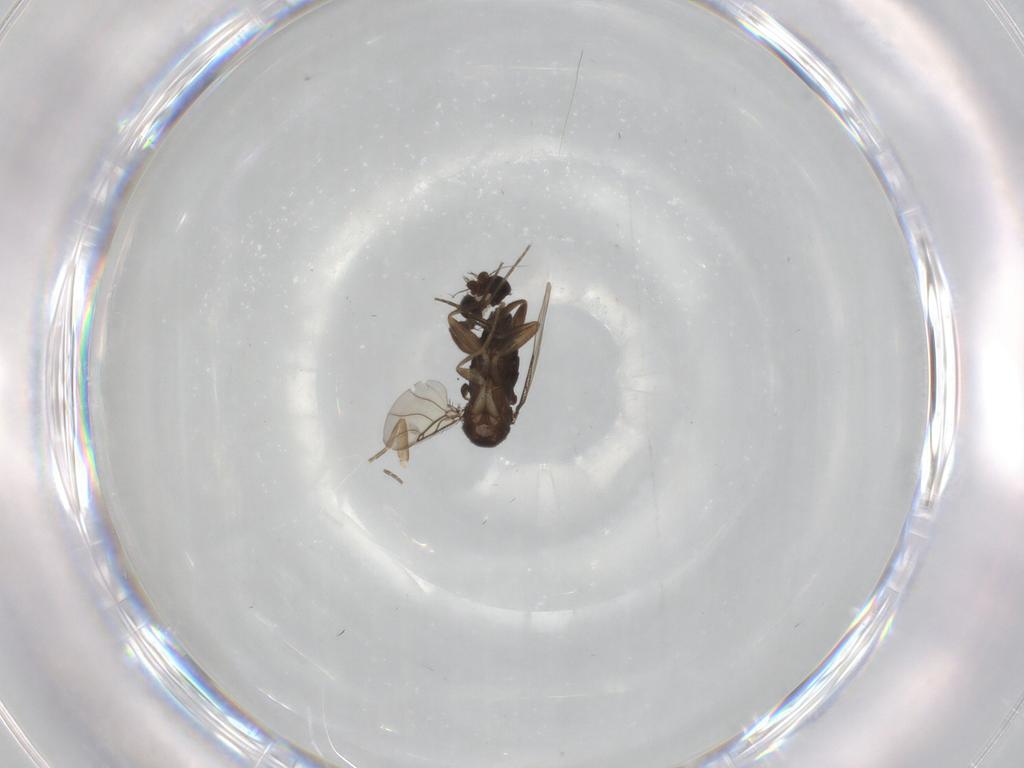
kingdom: Animalia
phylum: Arthropoda
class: Insecta
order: Diptera
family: Phoridae
